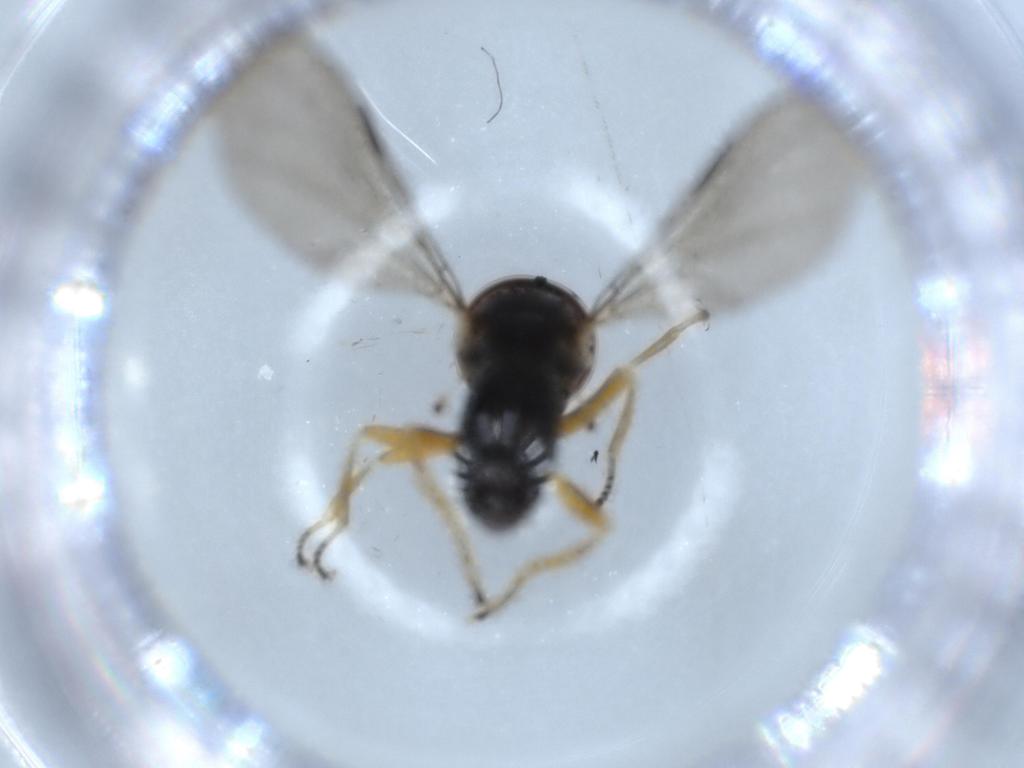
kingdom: Animalia
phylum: Arthropoda
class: Insecta
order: Diptera
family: Pipunculidae
